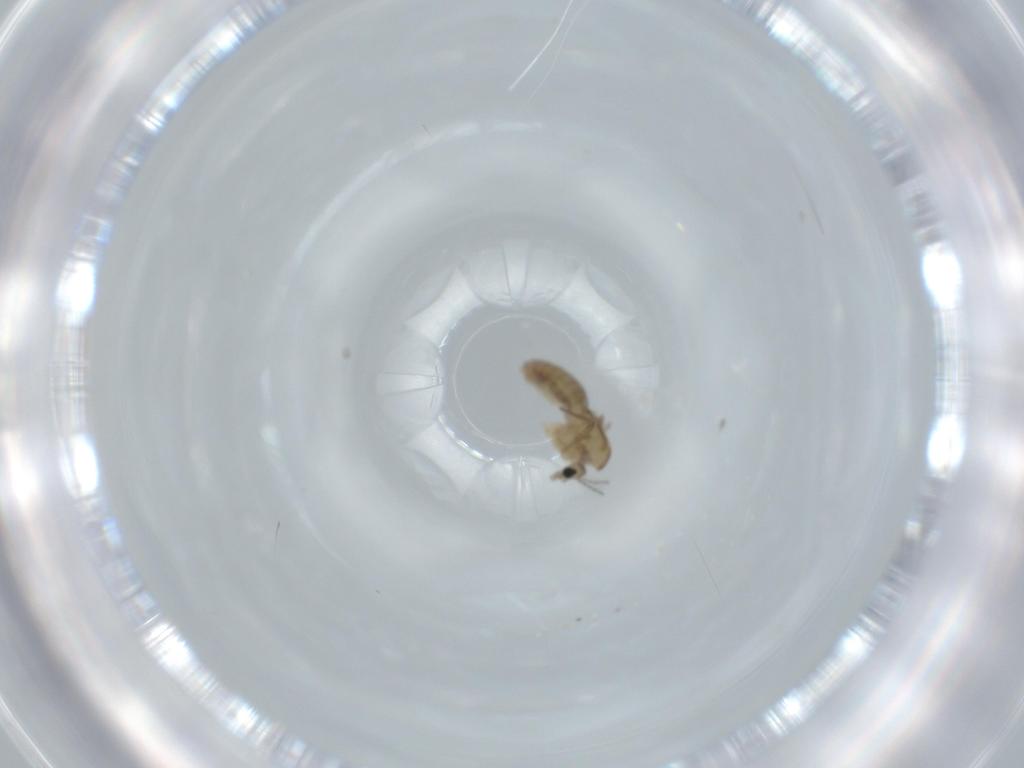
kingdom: Animalia
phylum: Arthropoda
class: Insecta
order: Diptera
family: Chironomidae
